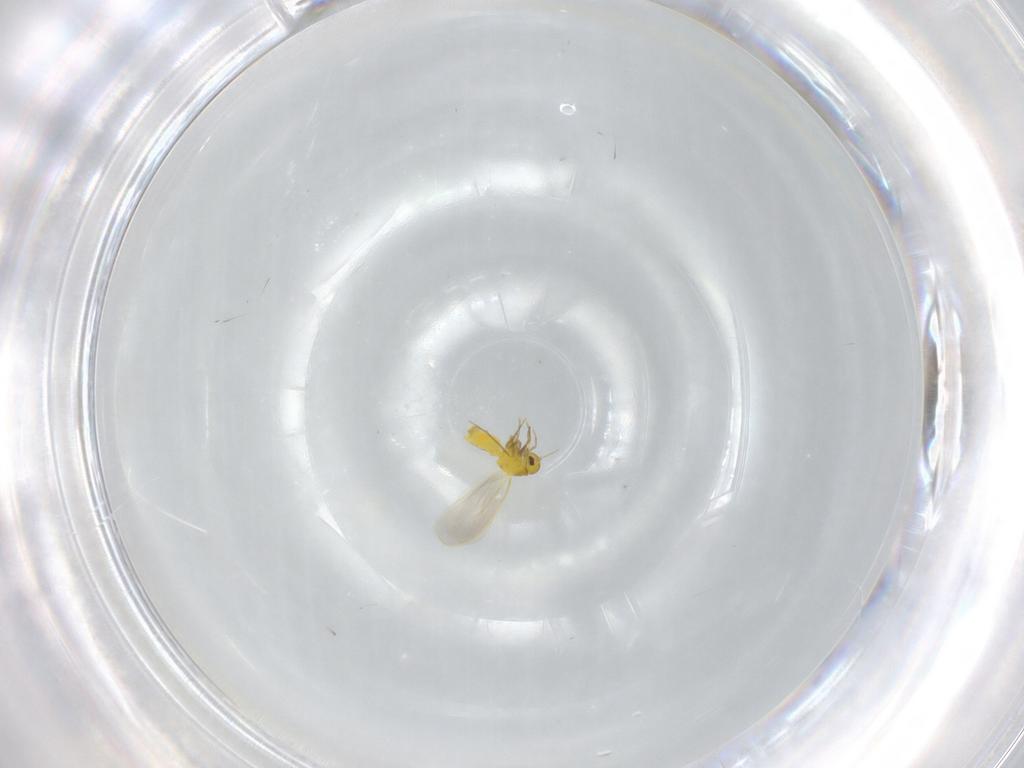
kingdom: Animalia
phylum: Arthropoda
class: Insecta
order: Hemiptera
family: Aleyrodidae
